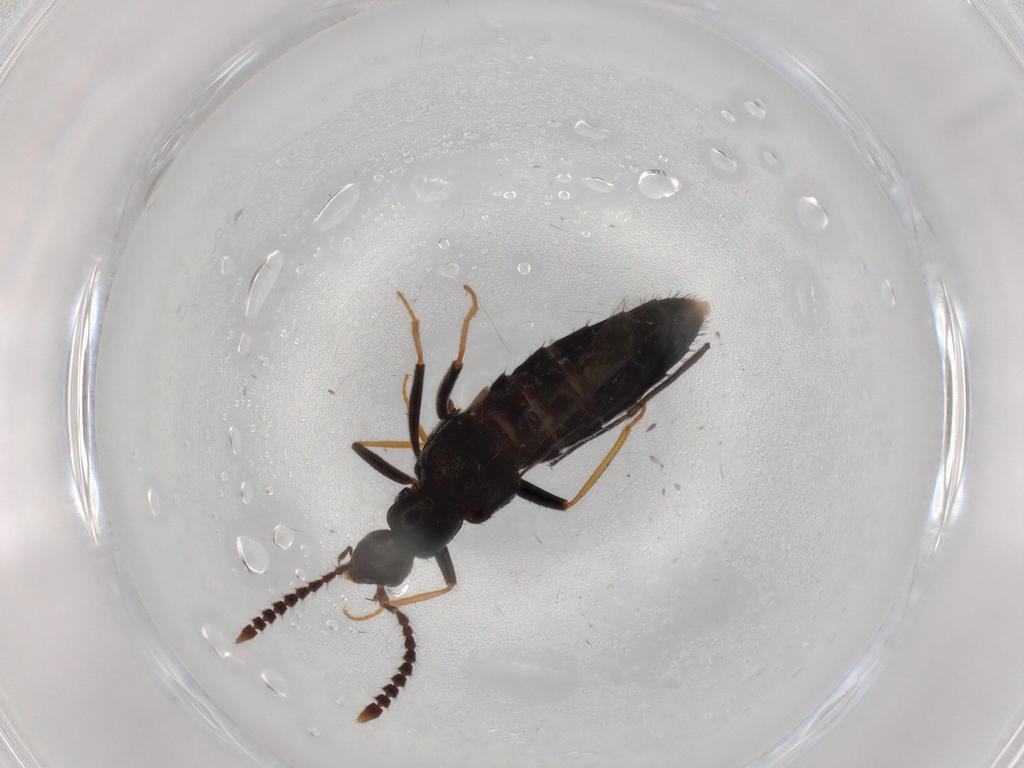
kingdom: Animalia
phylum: Arthropoda
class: Insecta
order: Coleoptera
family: Staphylinidae
